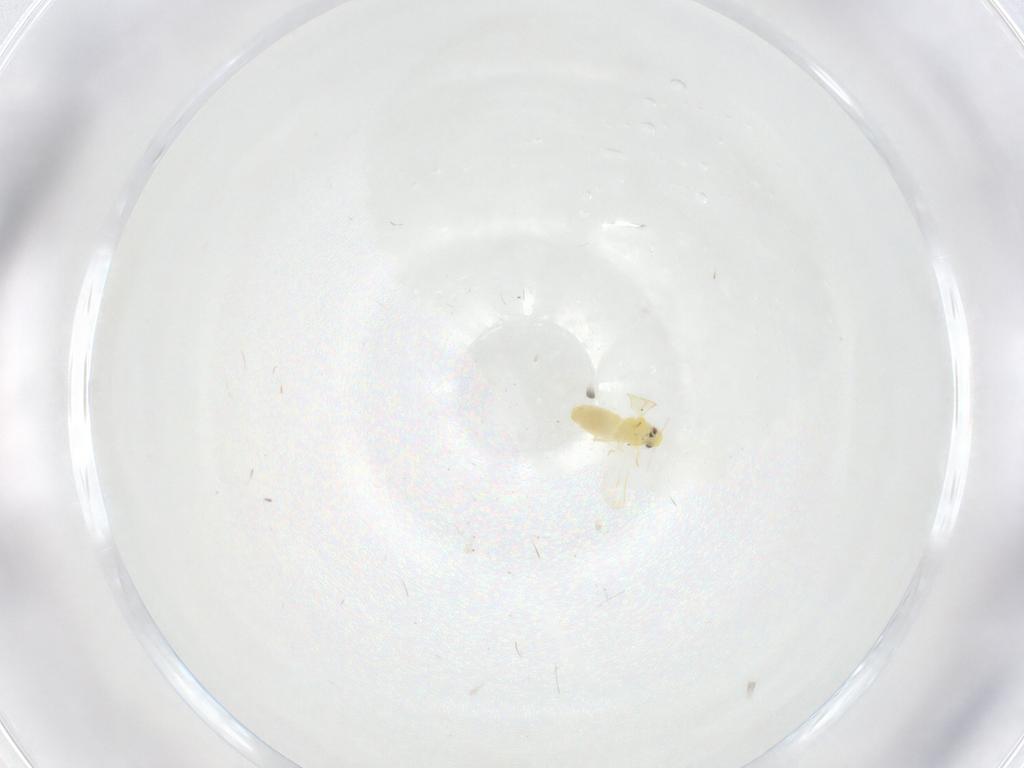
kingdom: Animalia
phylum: Arthropoda
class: Insecta
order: Hemiptera
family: Aleyrodidae
